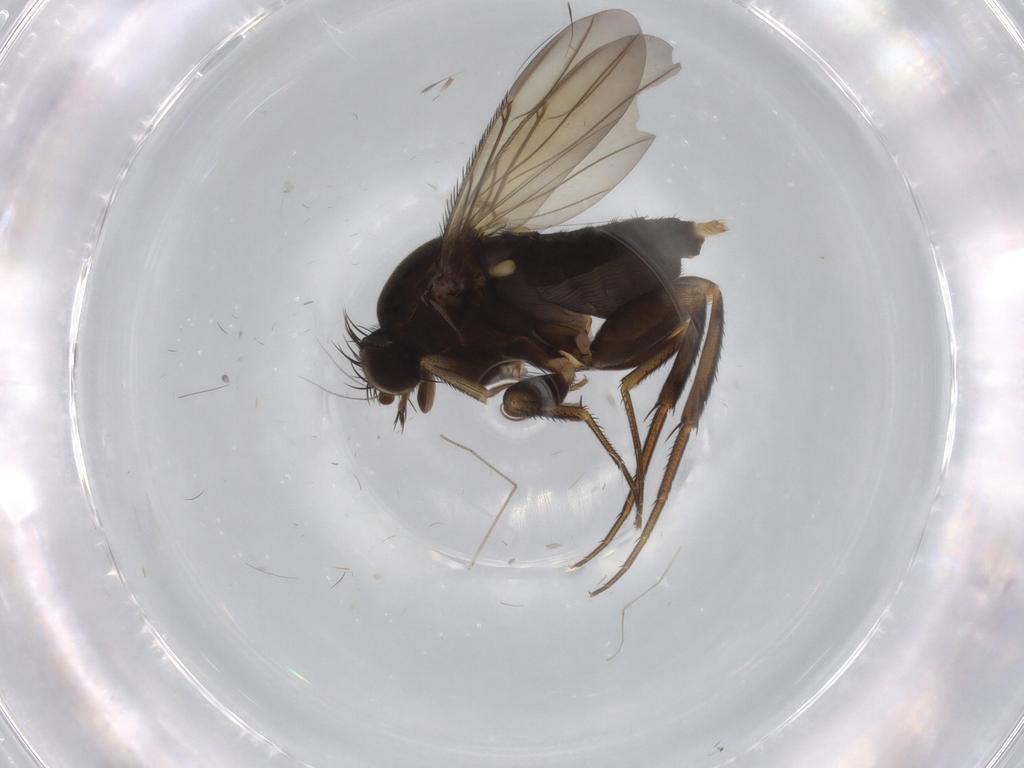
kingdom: Animalia
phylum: Arthropoda
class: Insecta
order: Diptera
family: Phoridae
